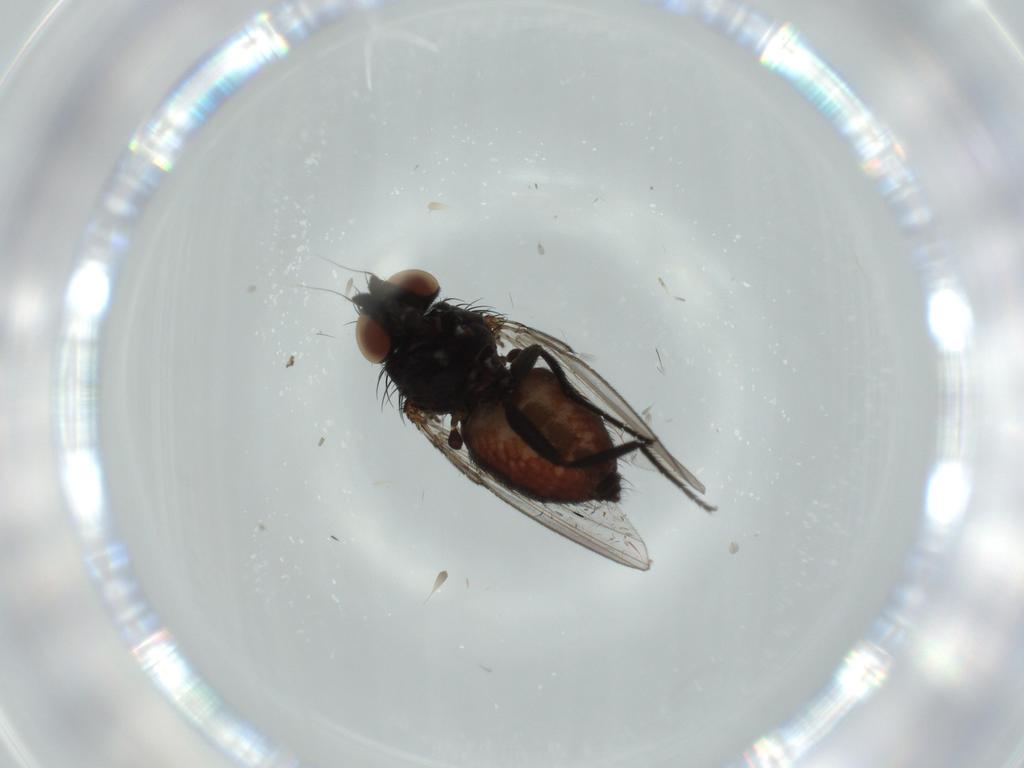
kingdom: Animalia
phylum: Arthropoda
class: Insecta
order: Diptera
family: Milichiidae
